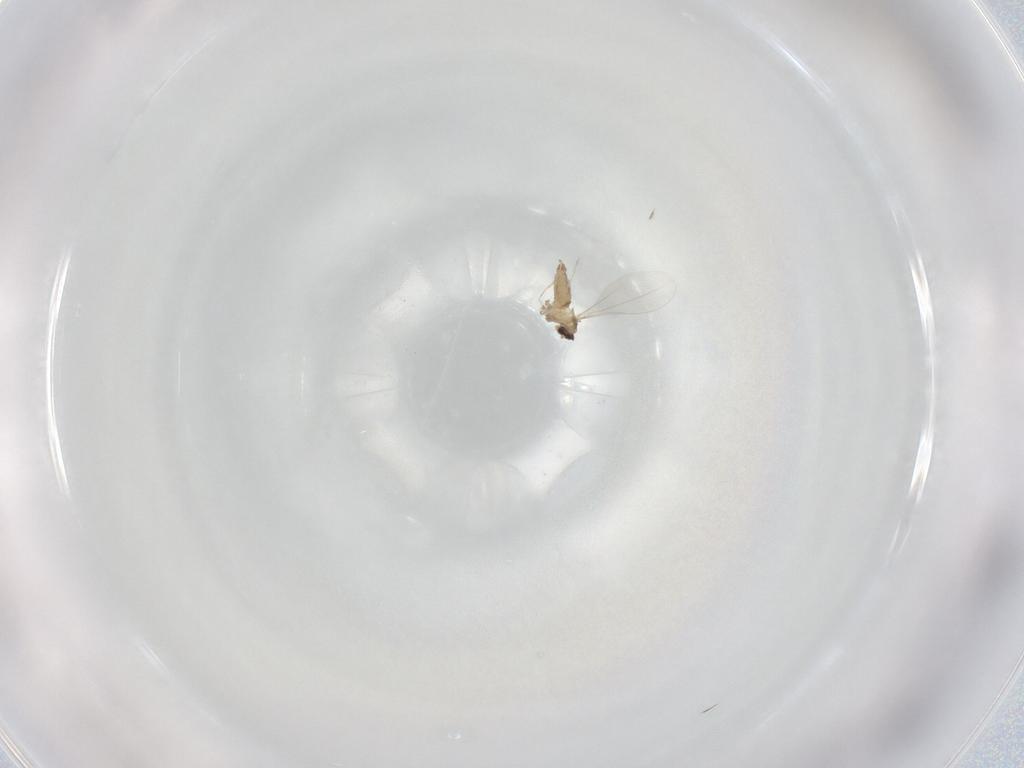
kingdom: Animalia
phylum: Arthropoda
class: Insecta
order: Diptera
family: Cecidomyiidae
